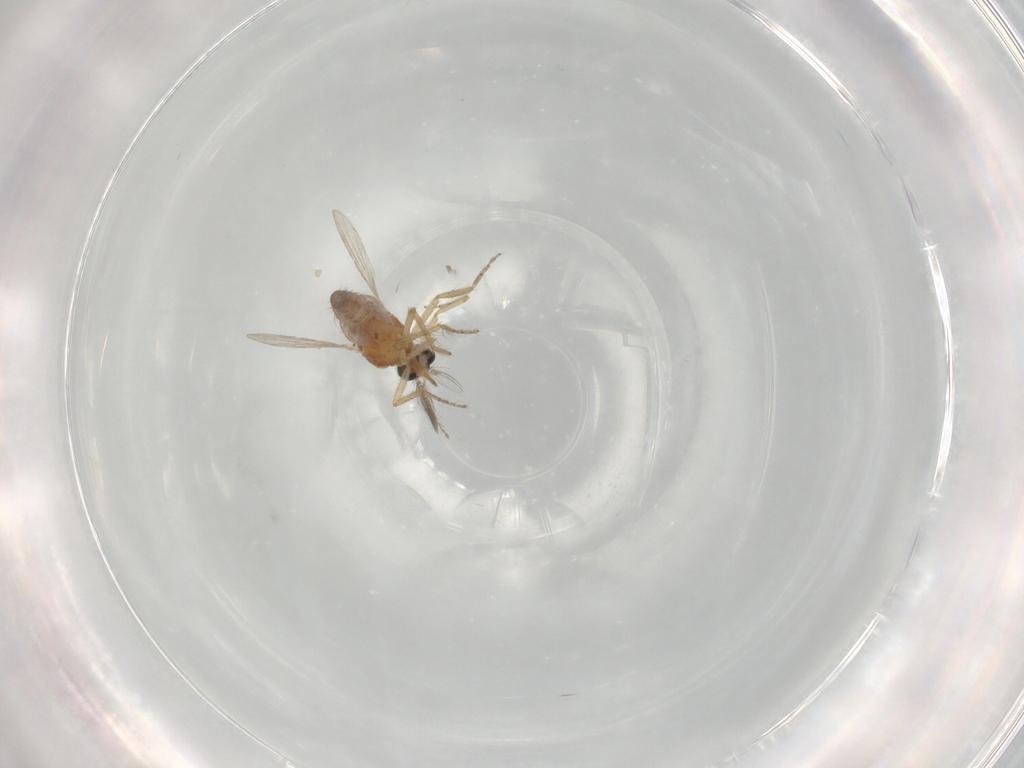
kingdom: Animalia
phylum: Arthropoda
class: Insecta
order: Diptera
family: Ceratopogonidae
